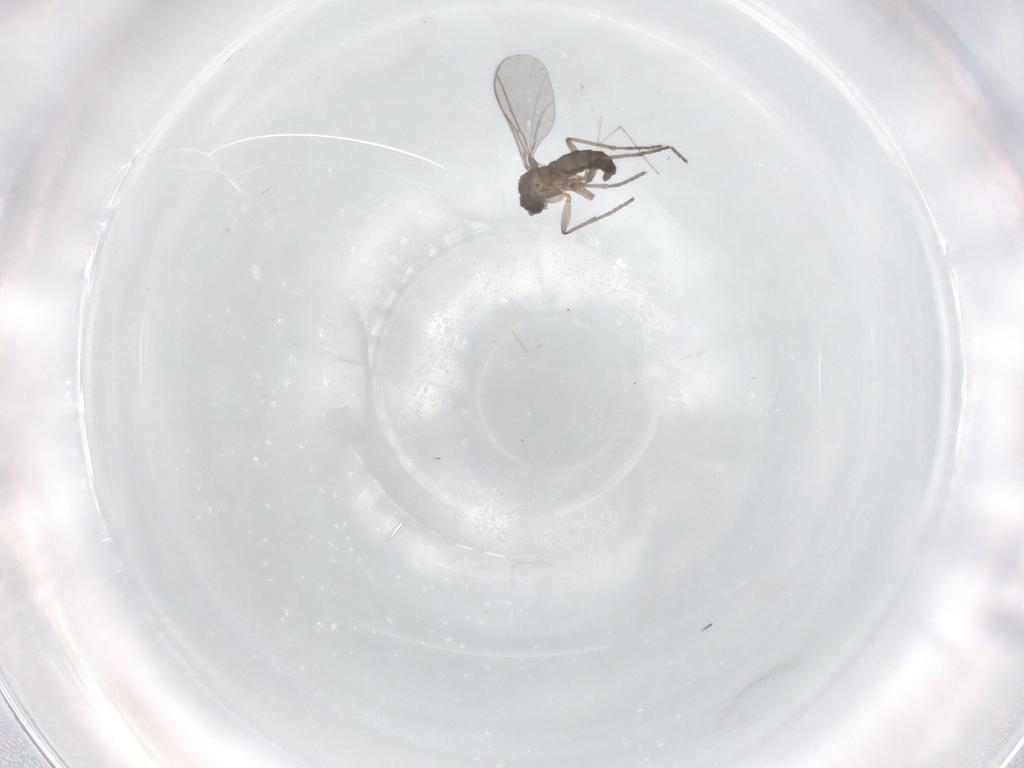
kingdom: Animalia
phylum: Arthropoda
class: Insecta
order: Diptera
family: Sciaridae
